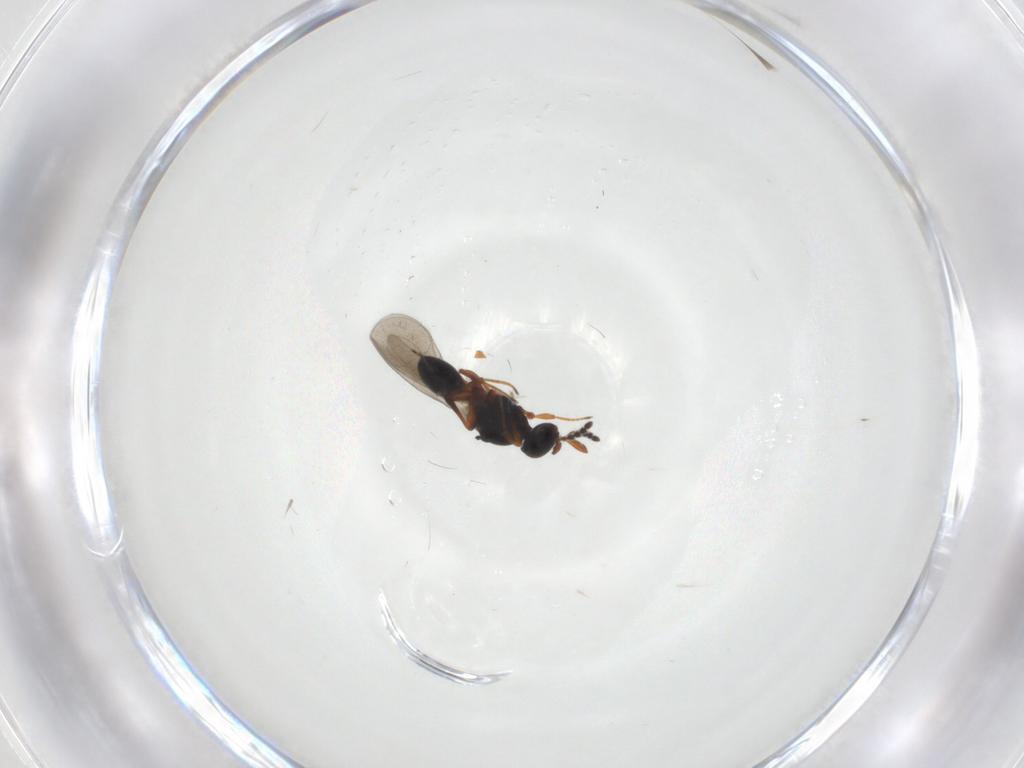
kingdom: Animalia
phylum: Arthropoda
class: Insecta
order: Hymenoptera
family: Platygastridae
